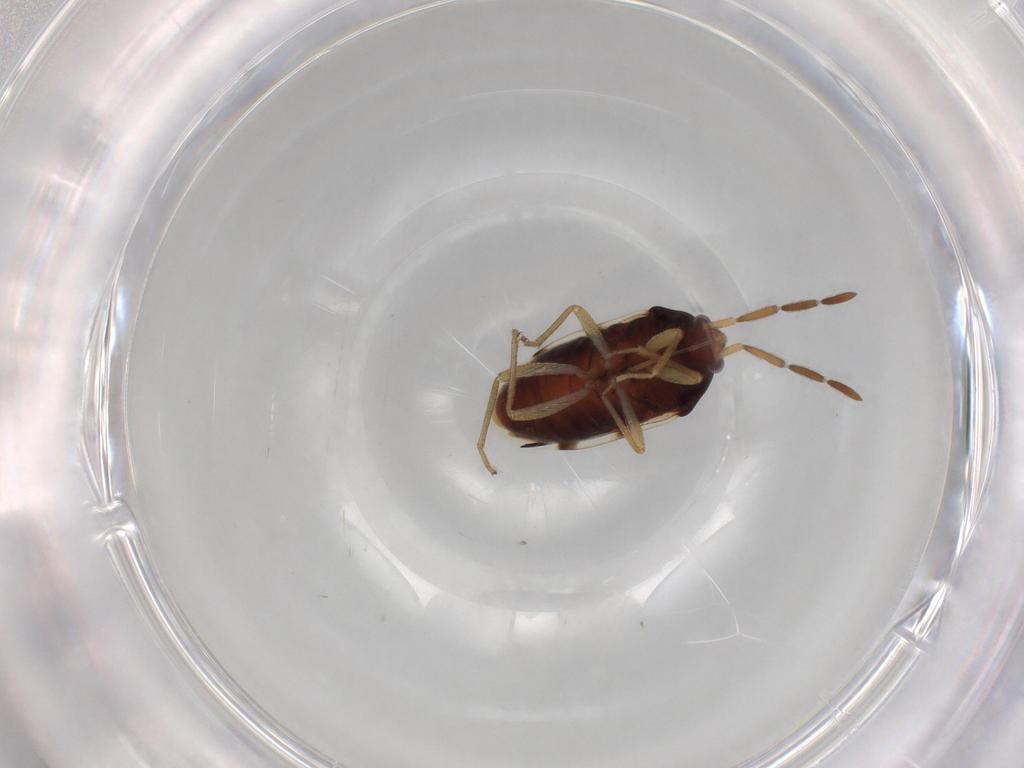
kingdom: Animalia
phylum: Arthropoda
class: Insecta
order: Hemiptera
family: Rhyparochromidae
